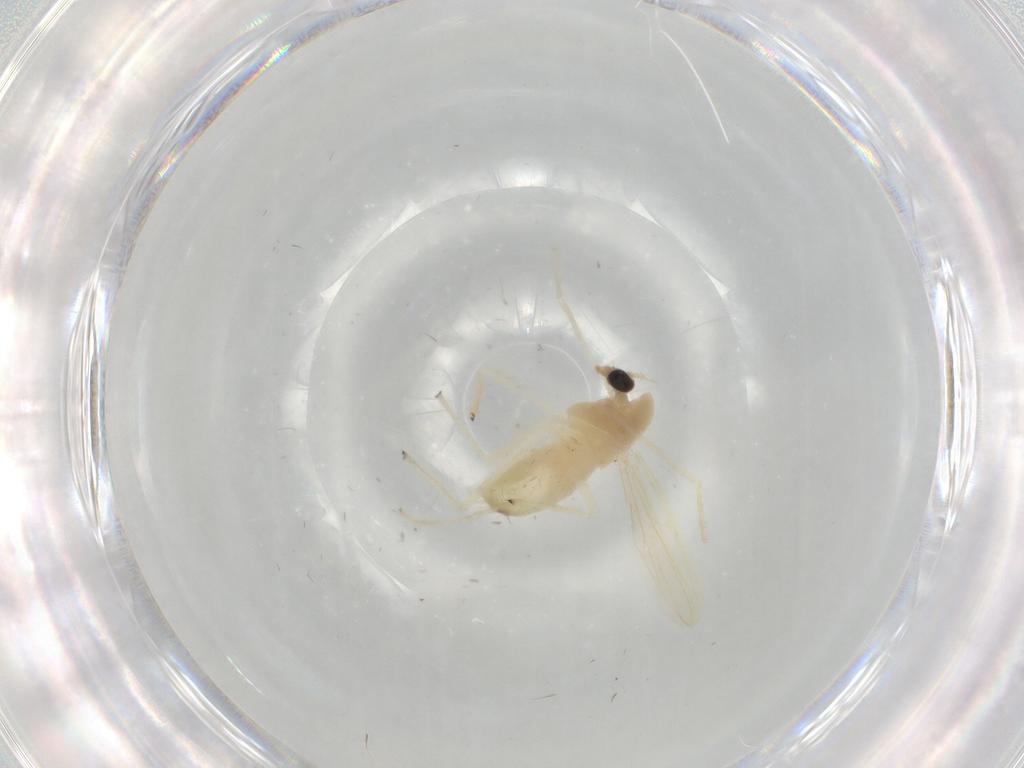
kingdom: Animalia
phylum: Arthropoda
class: Insecta
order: Diptera
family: Chironomidae
